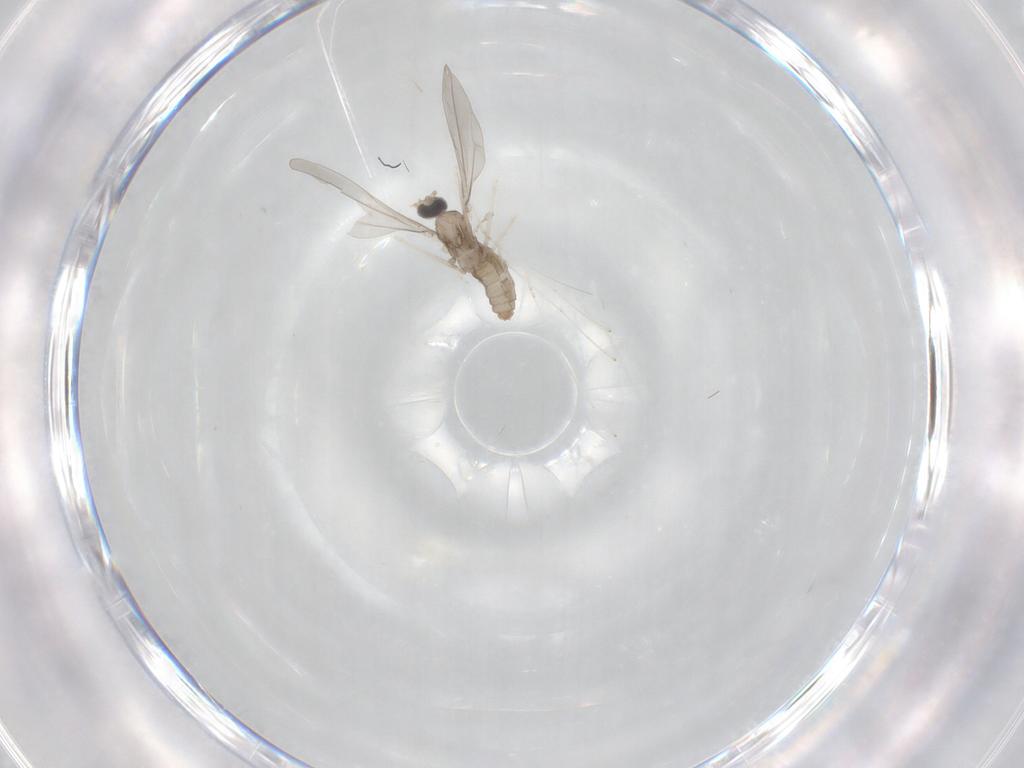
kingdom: Animalia
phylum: Arthropoda
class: Insecta
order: Diptera
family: Cecidomyiidae
